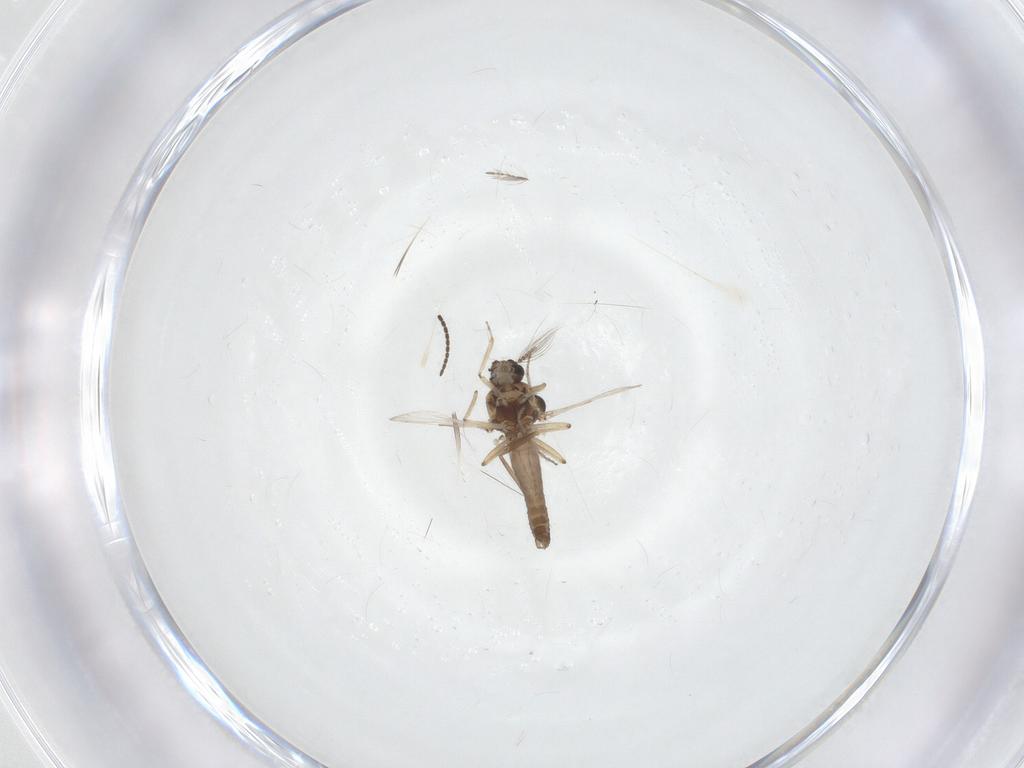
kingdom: Animalia
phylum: Arthropoda
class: Insecta
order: Diptera
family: Ceratopogonidae
